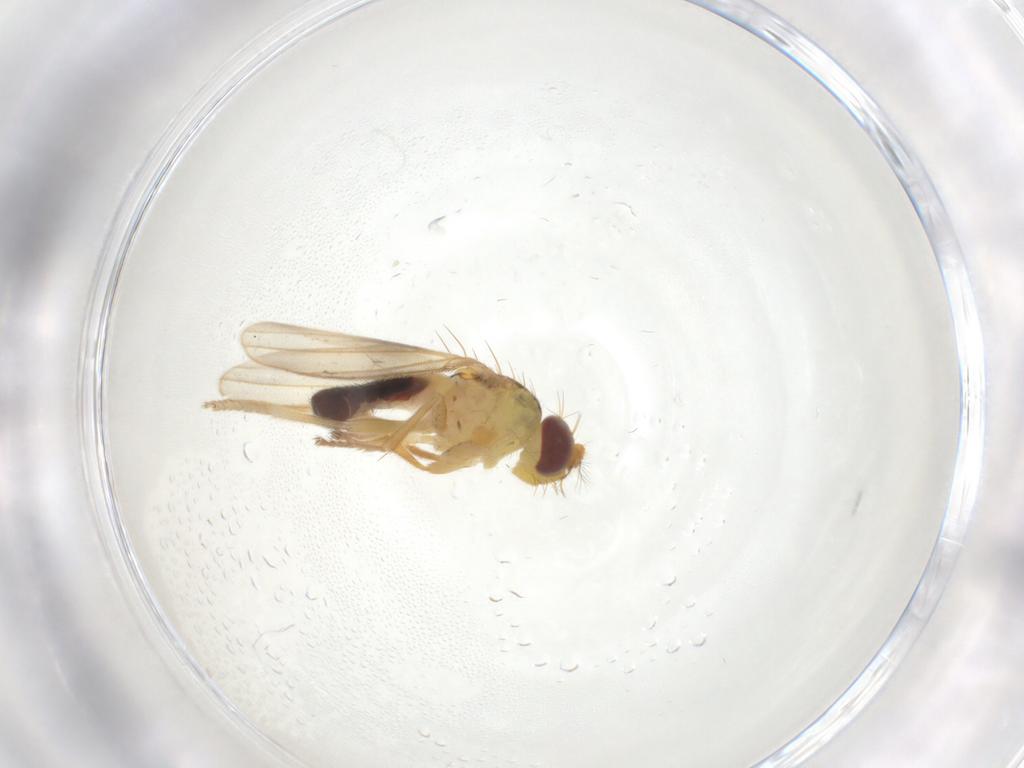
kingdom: Animalia
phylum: Arthropoda
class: Insecta
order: Diptera
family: Periscelididae
